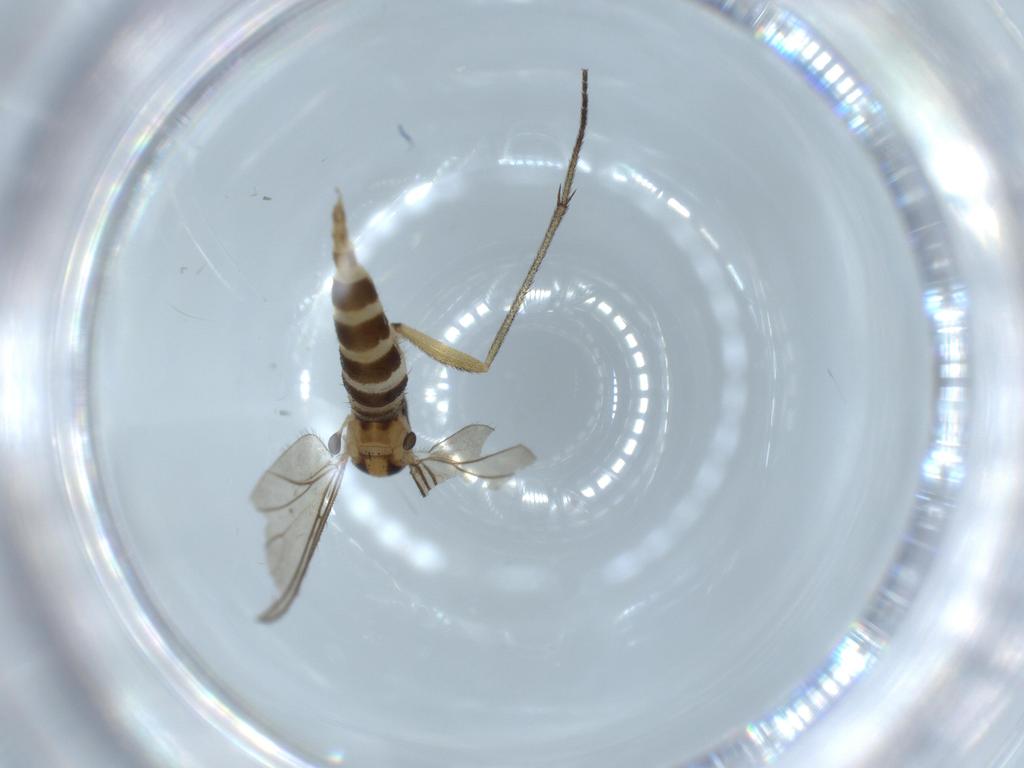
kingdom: Animalia
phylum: Arthropoda
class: Insecta
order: Diptera
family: Sciaridae
